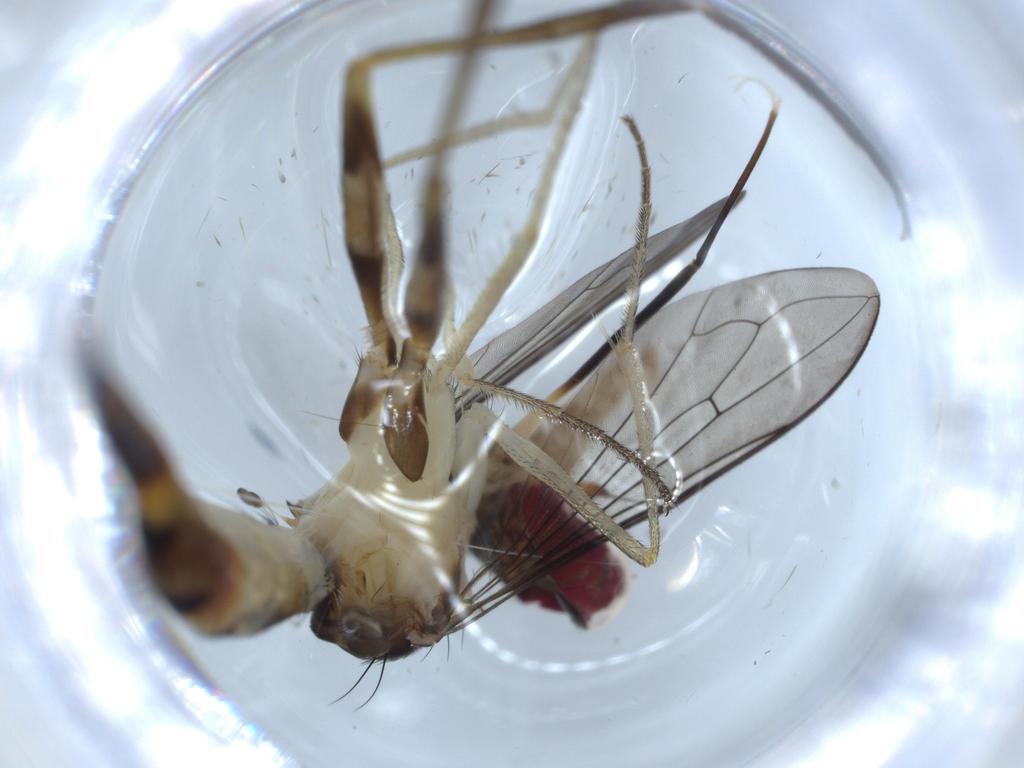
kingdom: Animalia
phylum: Arthropoda
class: Insecta
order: Diptera
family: Conopidae
